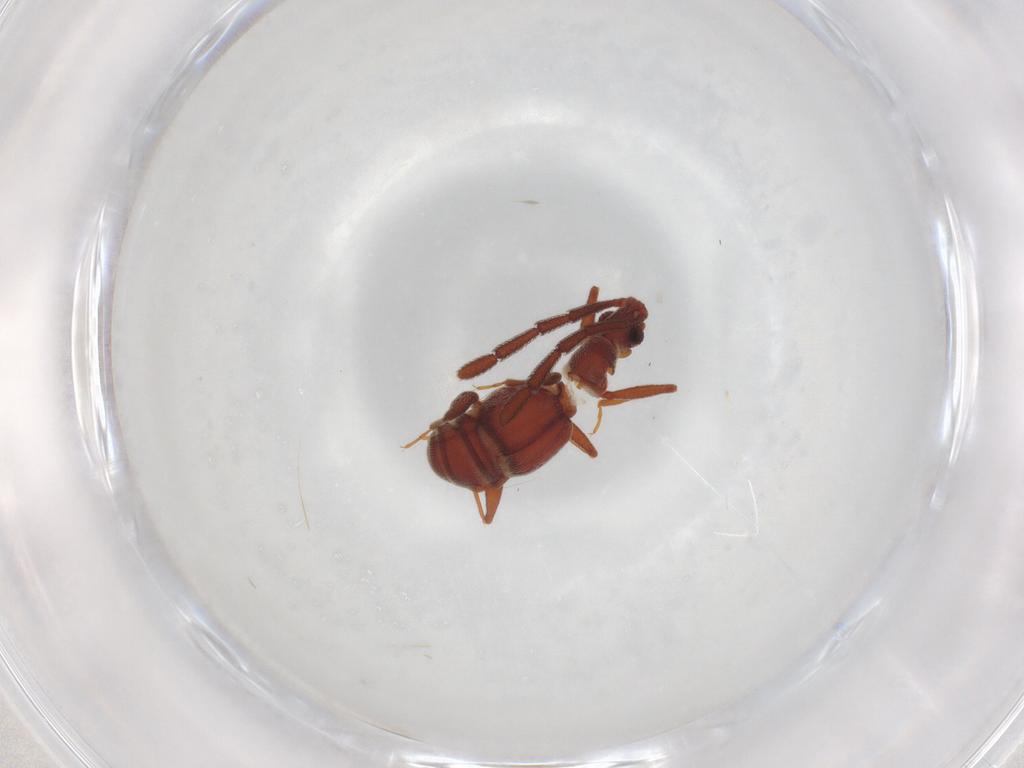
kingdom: Animalia
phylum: Arthropoda
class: Insecta
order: Coleoptera
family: Staphylinidae
